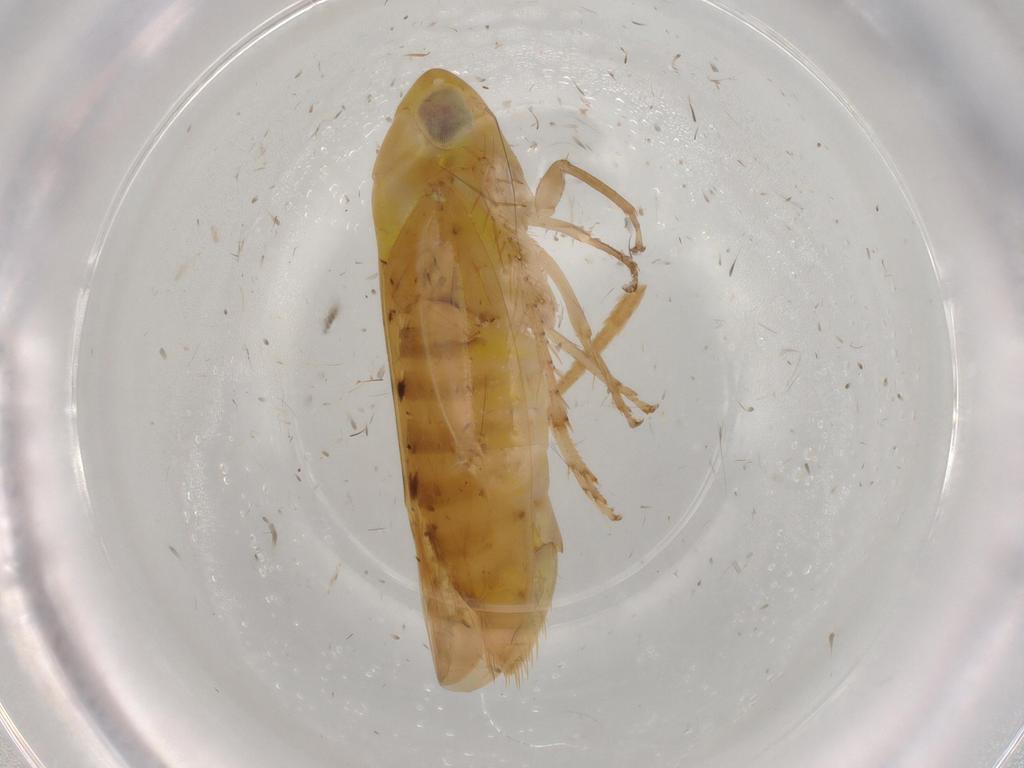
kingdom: Animalia
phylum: Arthropoda
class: Insecta
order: Hemiptera
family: Cicadellidae
